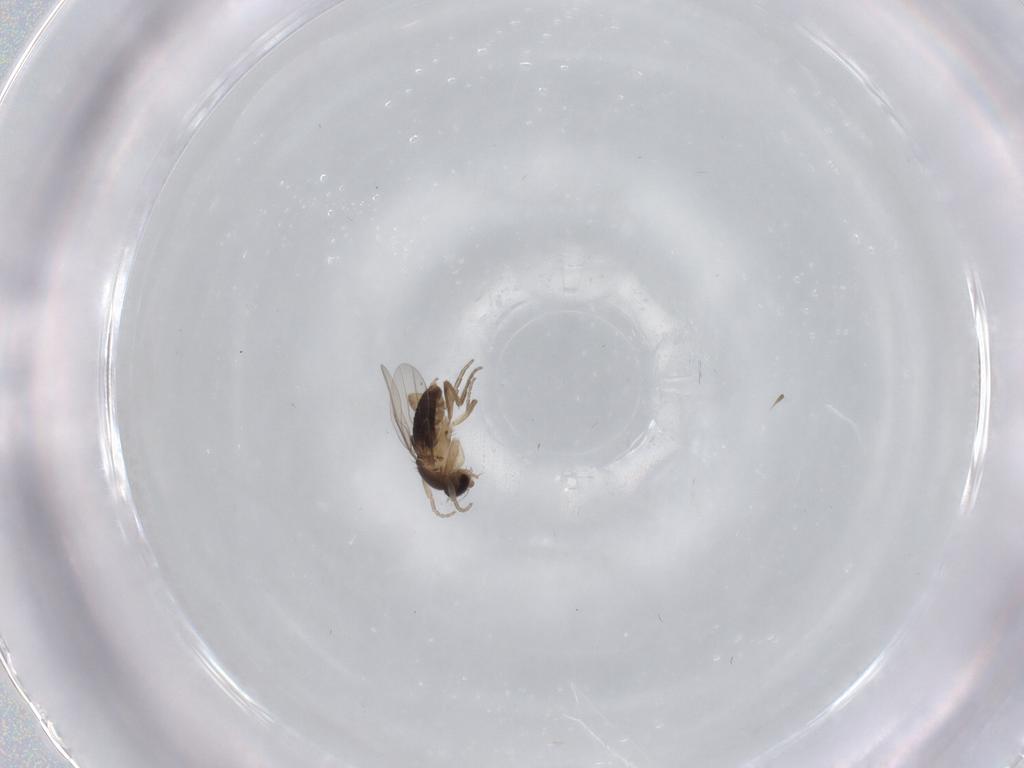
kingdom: Animalia
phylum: Arthropoda
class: Insecta
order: Diptera
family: Phoridae
